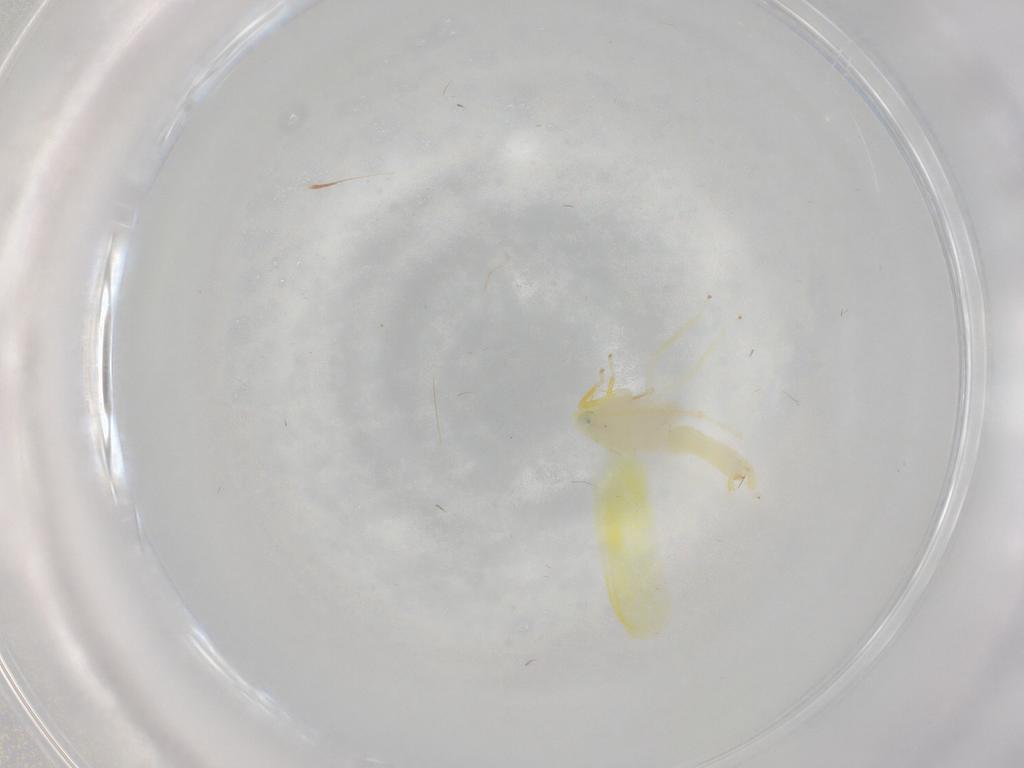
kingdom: Animalia
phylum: Arthropoda
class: Insecta
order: Hemiptera
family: Cicadellidae
